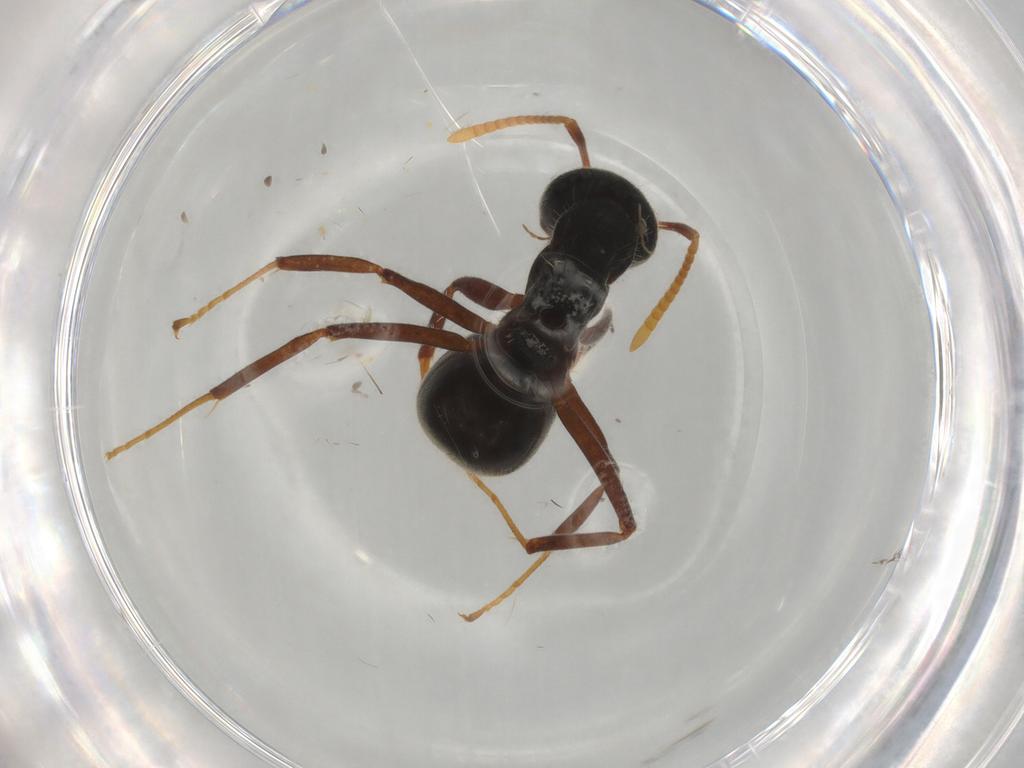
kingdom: Animalia
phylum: Arthropoda
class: Insecta
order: Hymenoptera
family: Formicidae
